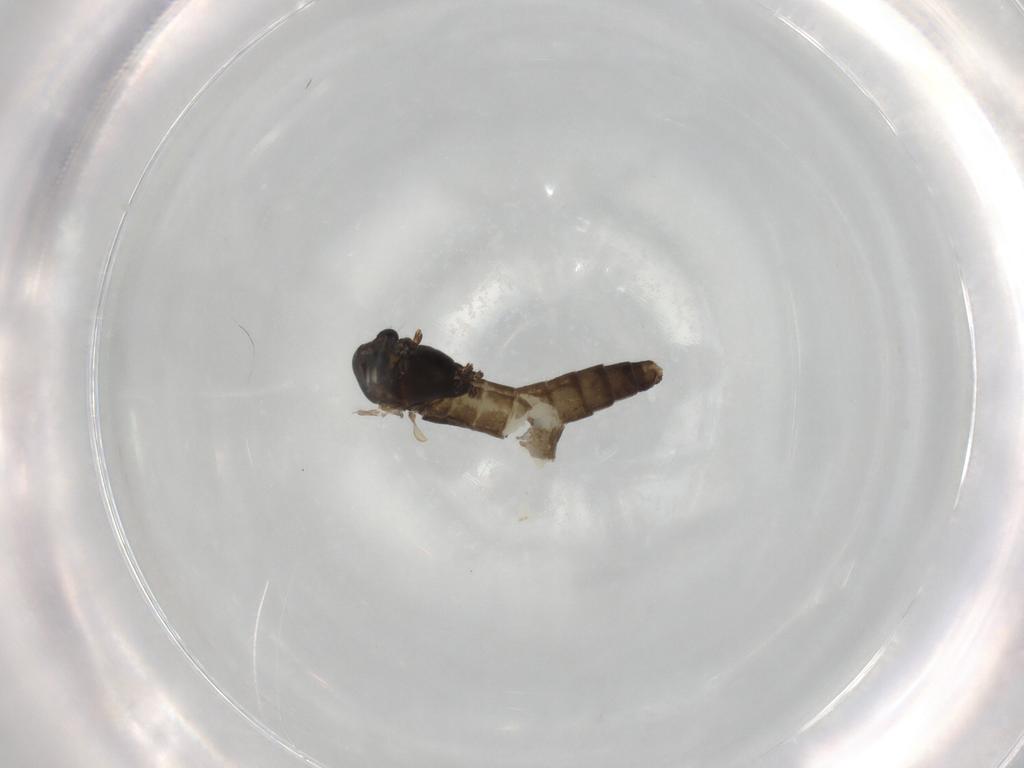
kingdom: Animalia
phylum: Arthropoda
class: Insecta
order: Diptera
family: Chironomidae
